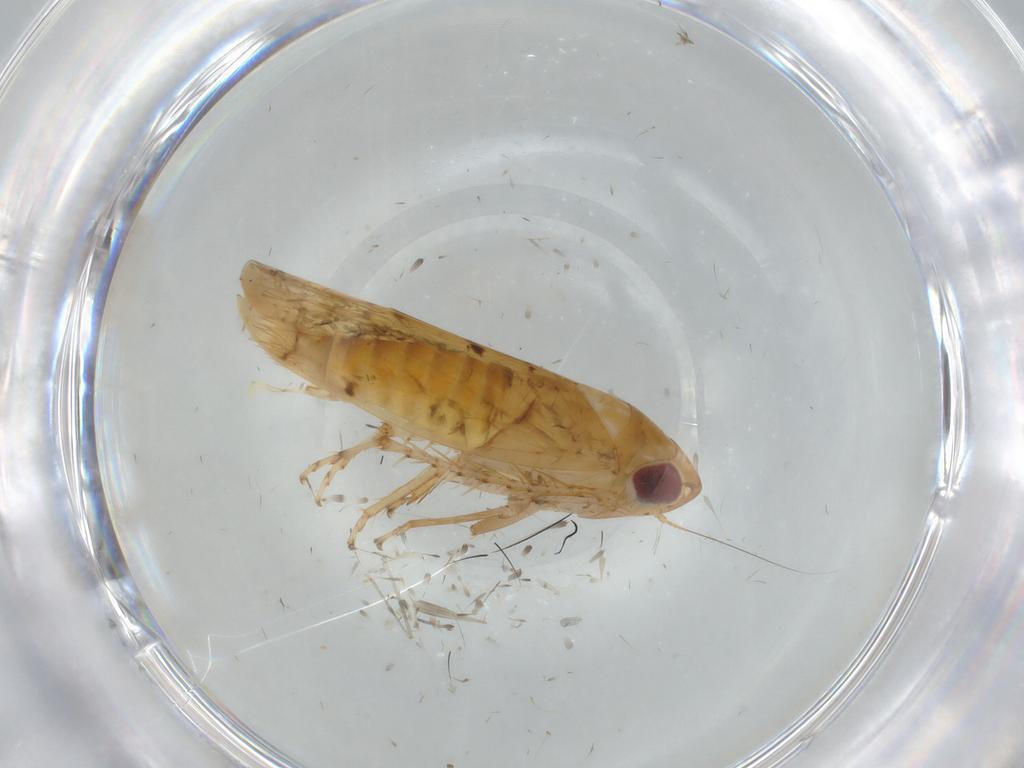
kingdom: Animalia
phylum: Arthropoda
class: Insecta
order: Hemiptera
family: Cicadellidae
